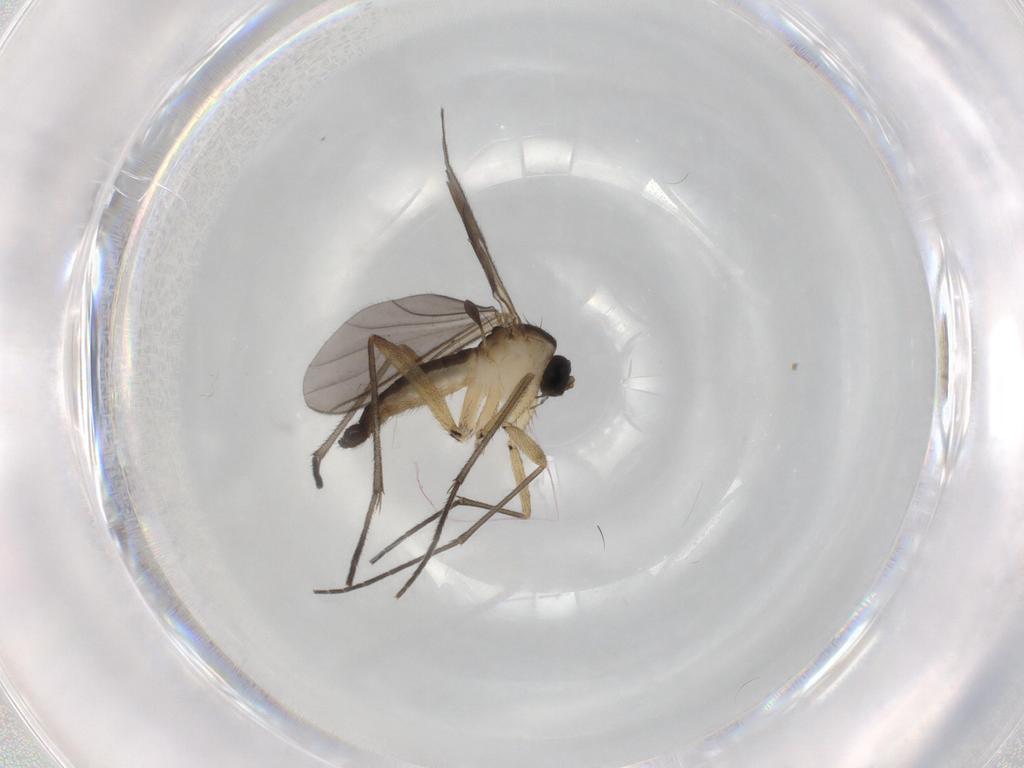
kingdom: Animalia
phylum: Arthropoda
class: Insecta
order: Diptera
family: Sciaridae
